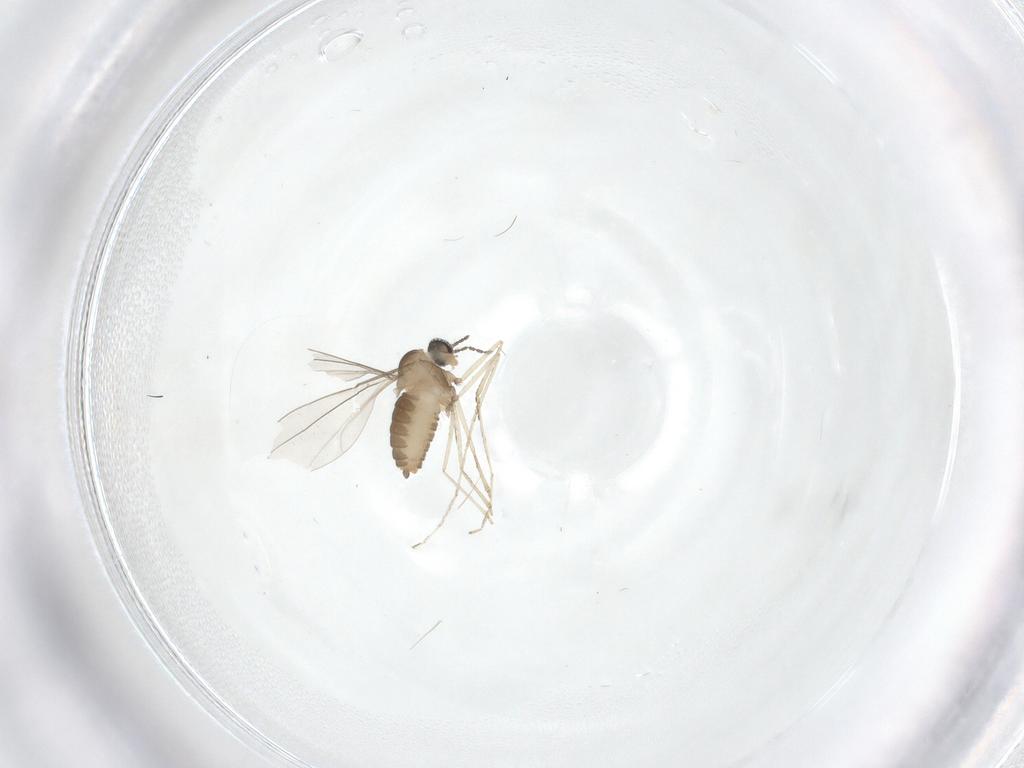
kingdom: Animalia
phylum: Arthropoda
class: Insecta
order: Diptera
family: Cecidomyiidae
